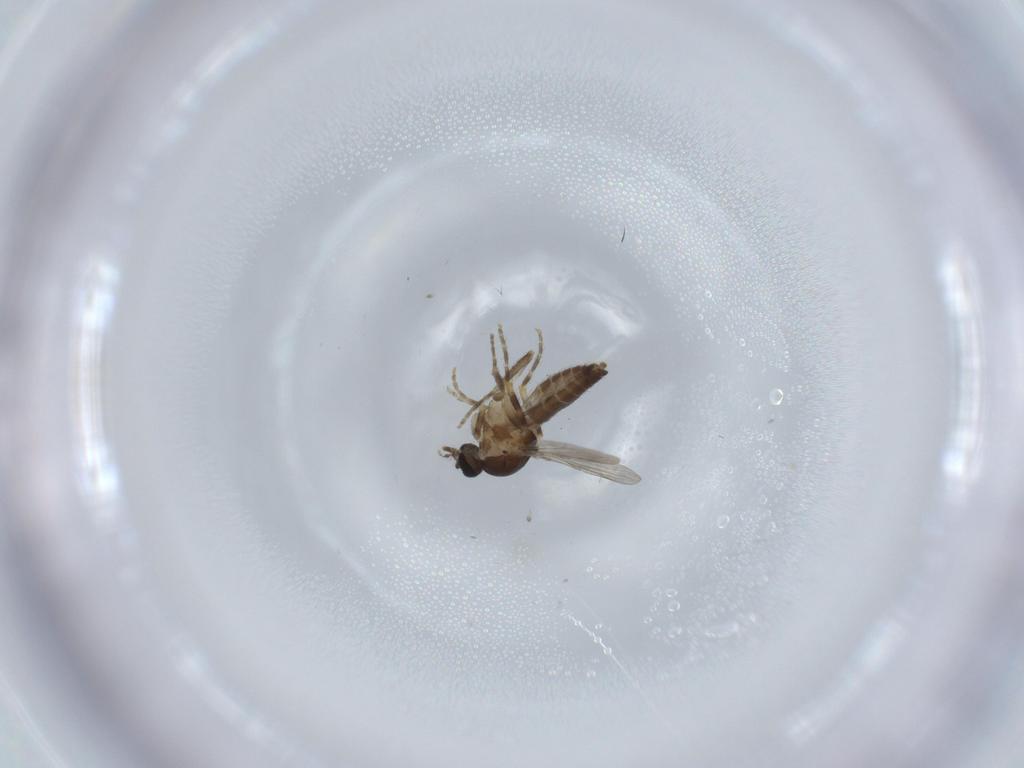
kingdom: Animalia
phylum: Arthropoda
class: Insecta
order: Diptera
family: Ceratopogonidae
